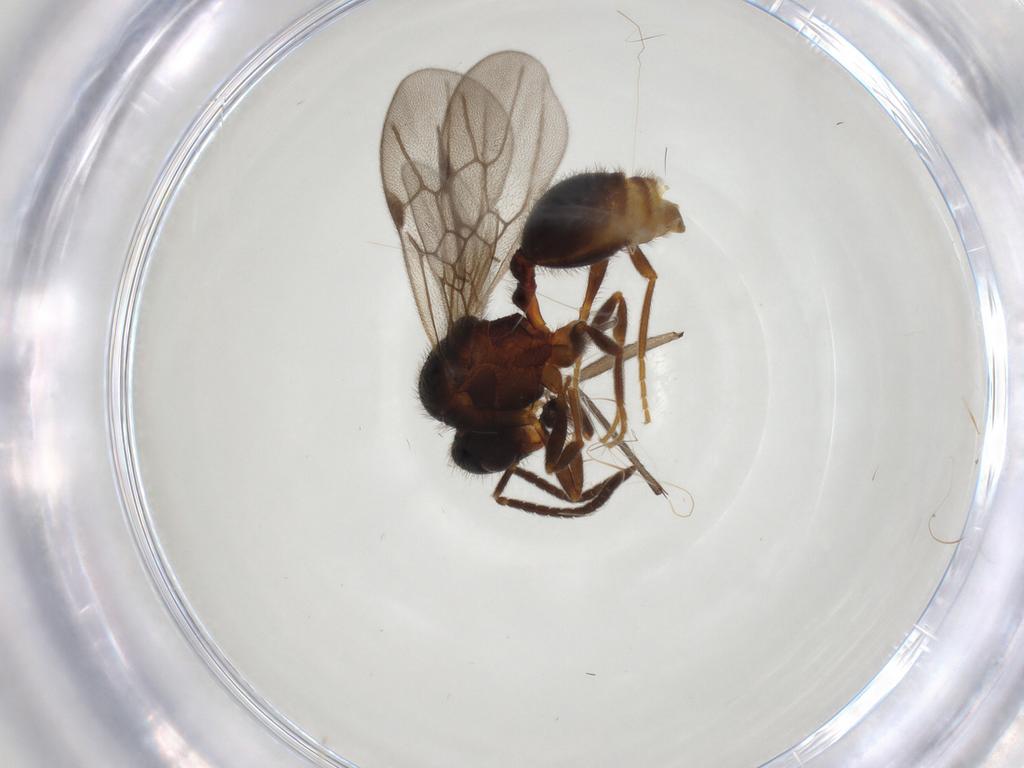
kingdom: Animalia
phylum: Arthropoda
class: Insecta
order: Hymenoptera
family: Formicidae
